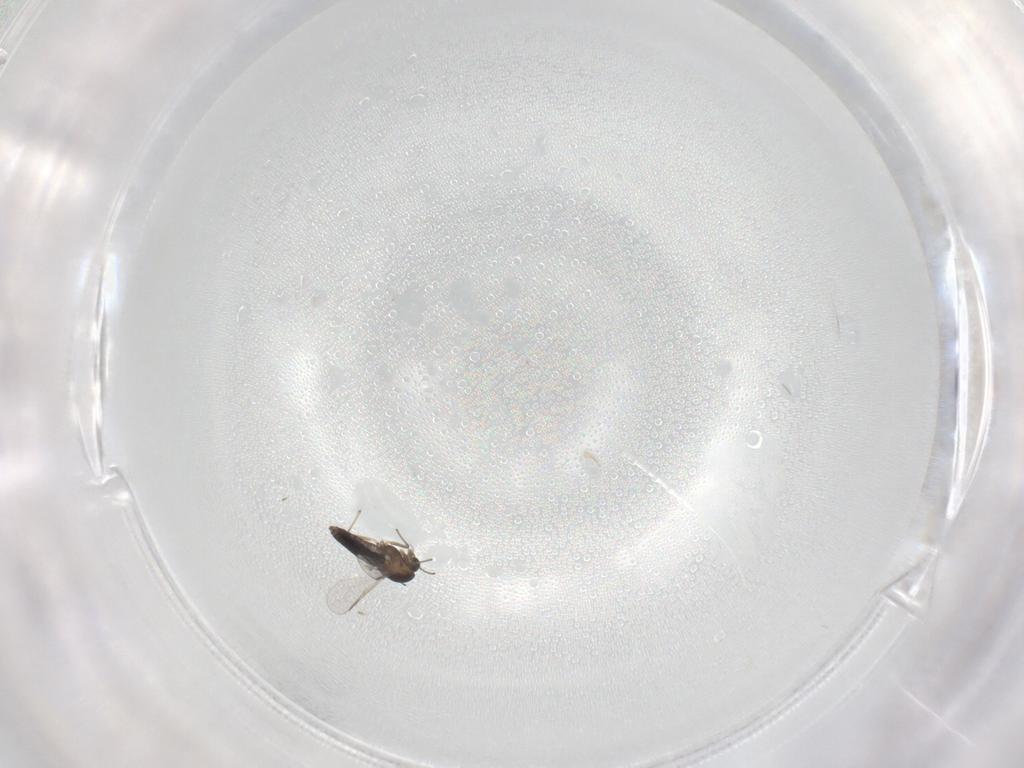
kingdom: Animalia
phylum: Arthropoda
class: Insecta
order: Diptera
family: Chironomidae
